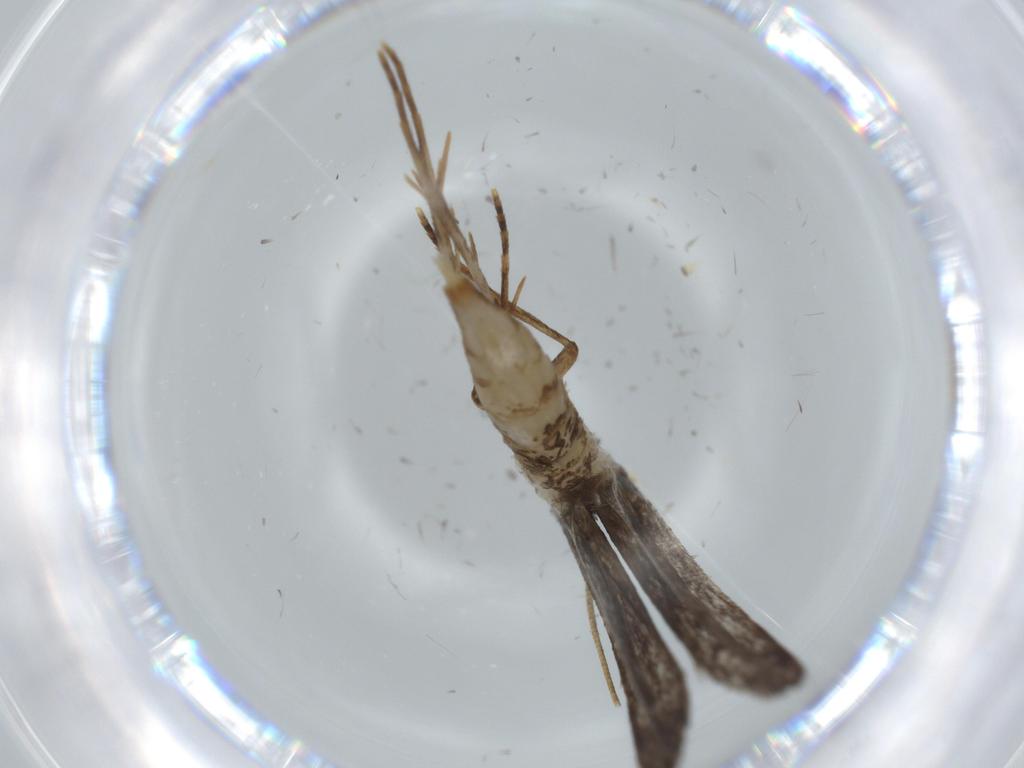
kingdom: Animalia
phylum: Arthropoda
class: Insecta
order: Lepidoptera
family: Tineidae
